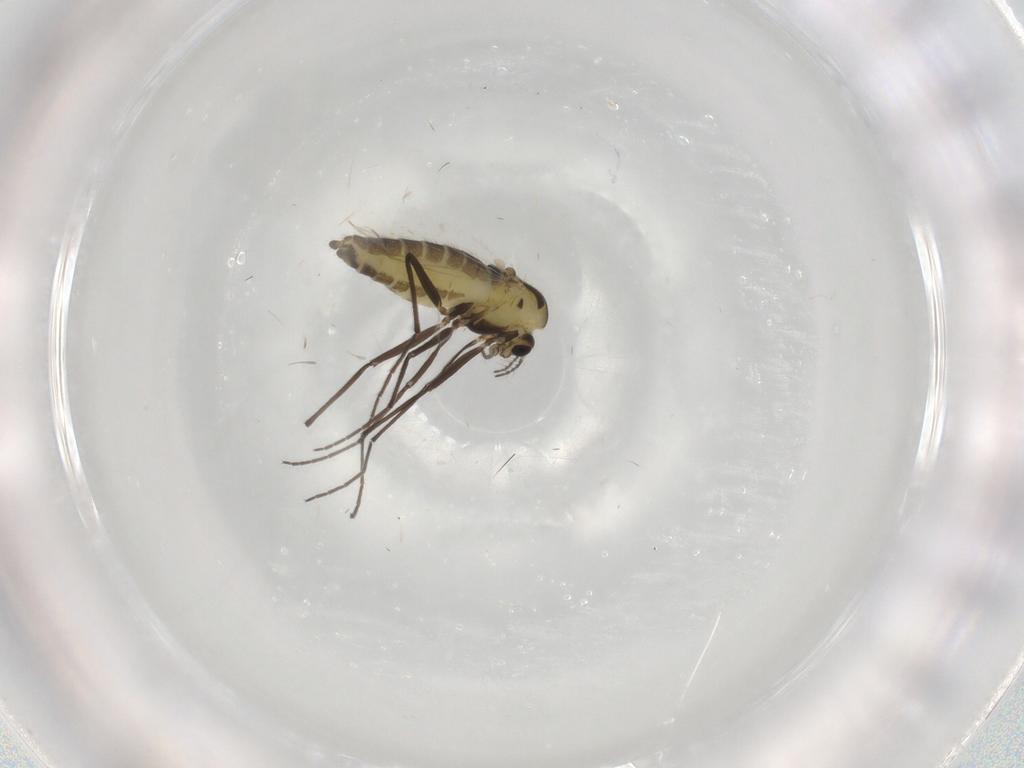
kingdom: Animalia
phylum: Arthropoda
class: Insecta
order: Diptera
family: Chironomidae
